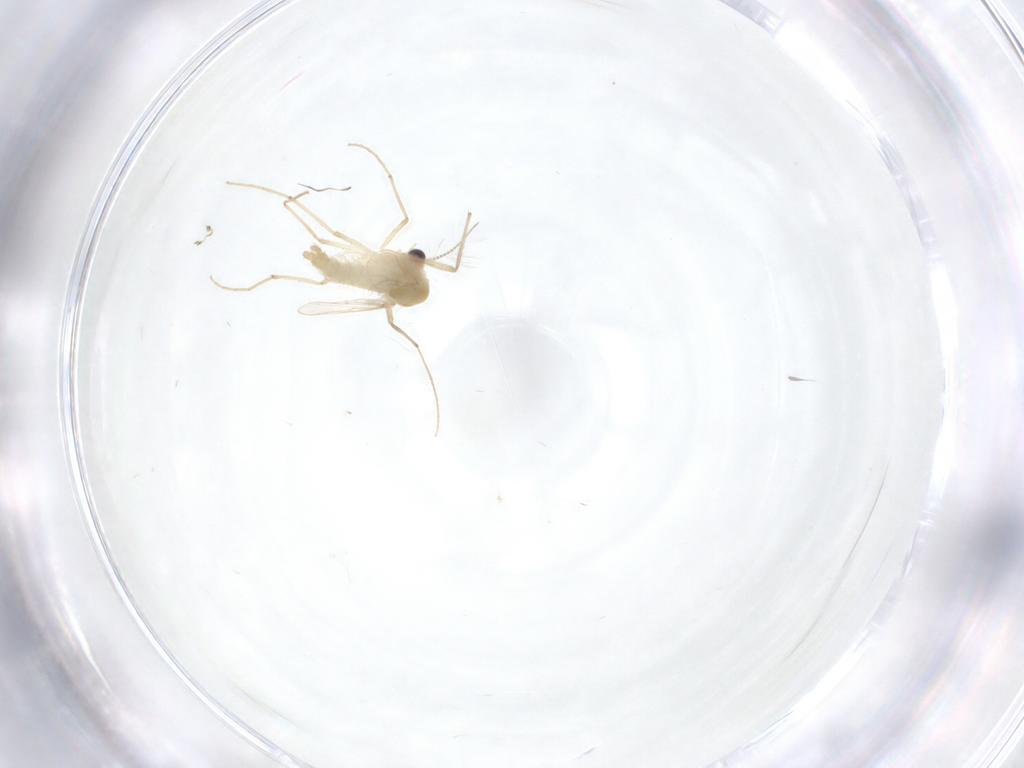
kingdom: Animalia
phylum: Arthropoda
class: Insecta
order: Diptera
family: Chironomidae
